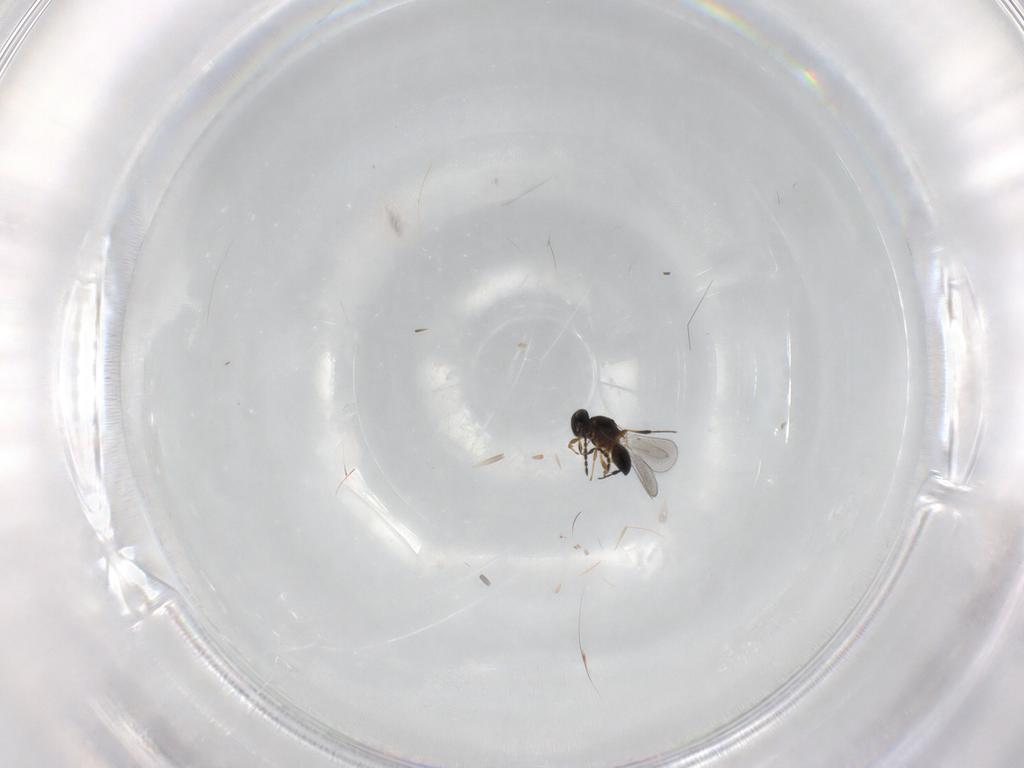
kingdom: Animalia
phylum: Arthropoda
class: Insecta
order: Hymenoptera
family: Platygastridae
